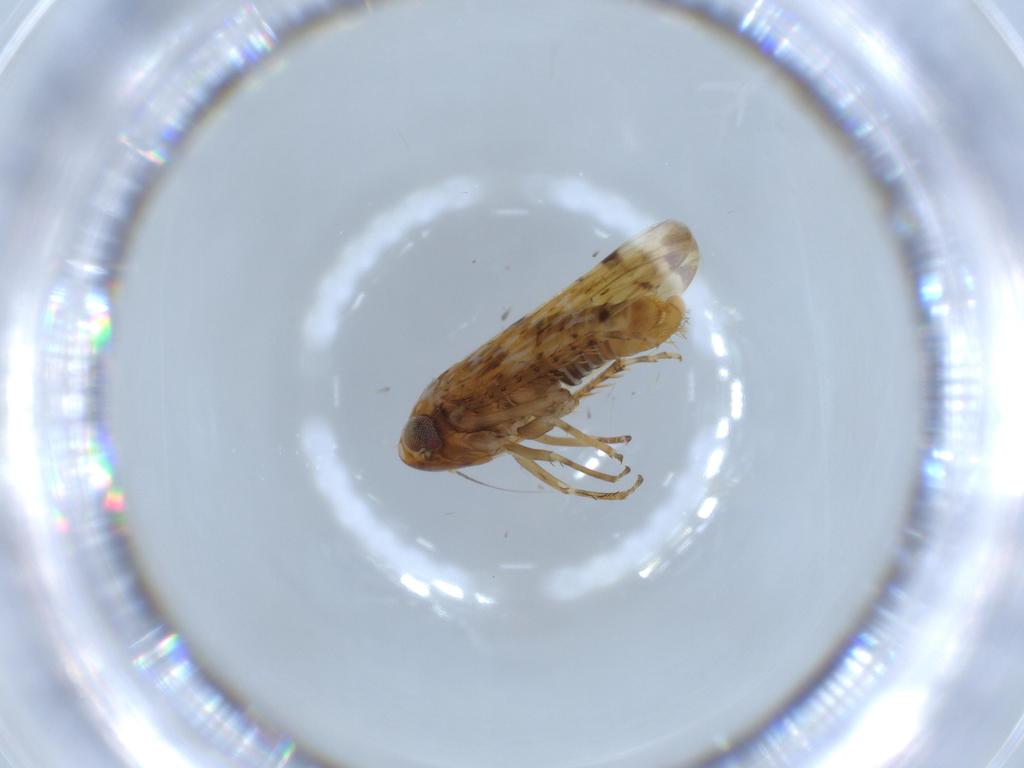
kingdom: Animalia
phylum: Arthropoda
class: Insecta
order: Hemiptera
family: Cicadellidae
